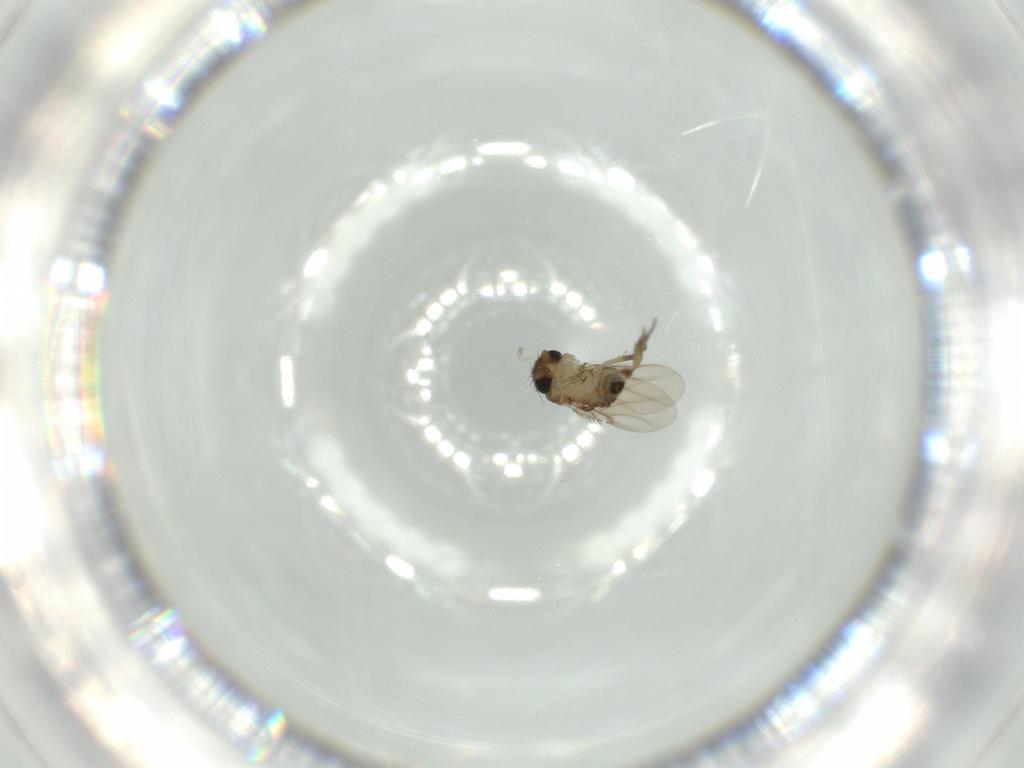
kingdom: Animalia
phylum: Arthropoda
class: Insecta
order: Diptera
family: Phoridae
